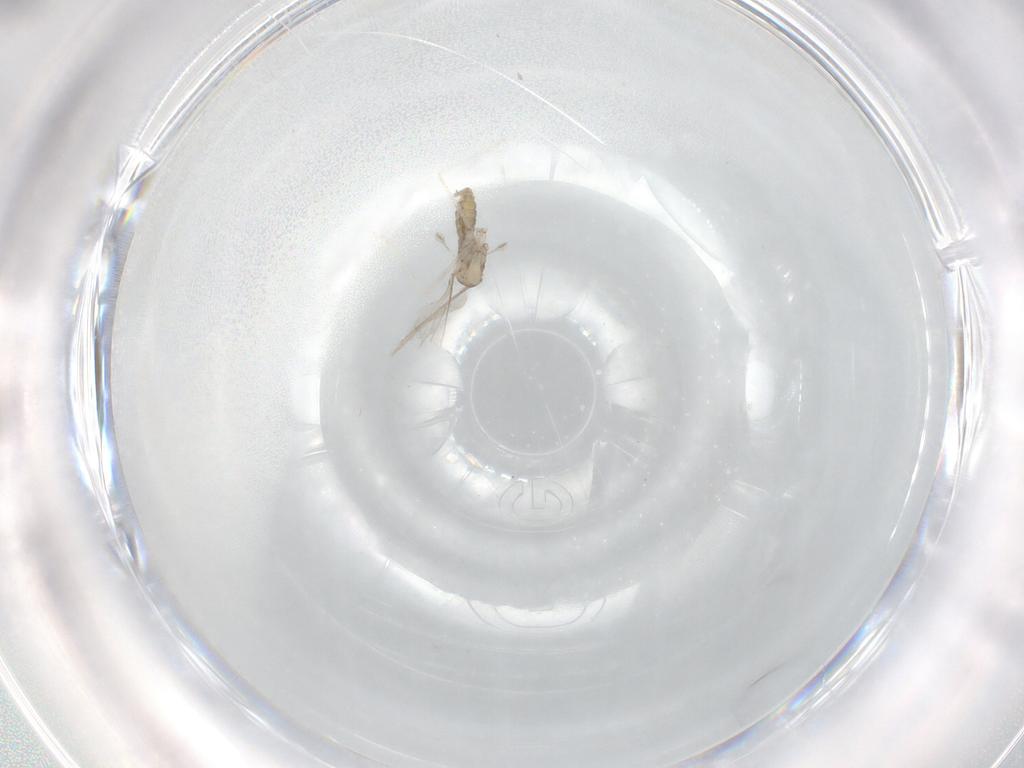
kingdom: Animalia
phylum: Arthropoda
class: Insecta
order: Diptera
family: Cecidomyiidae
